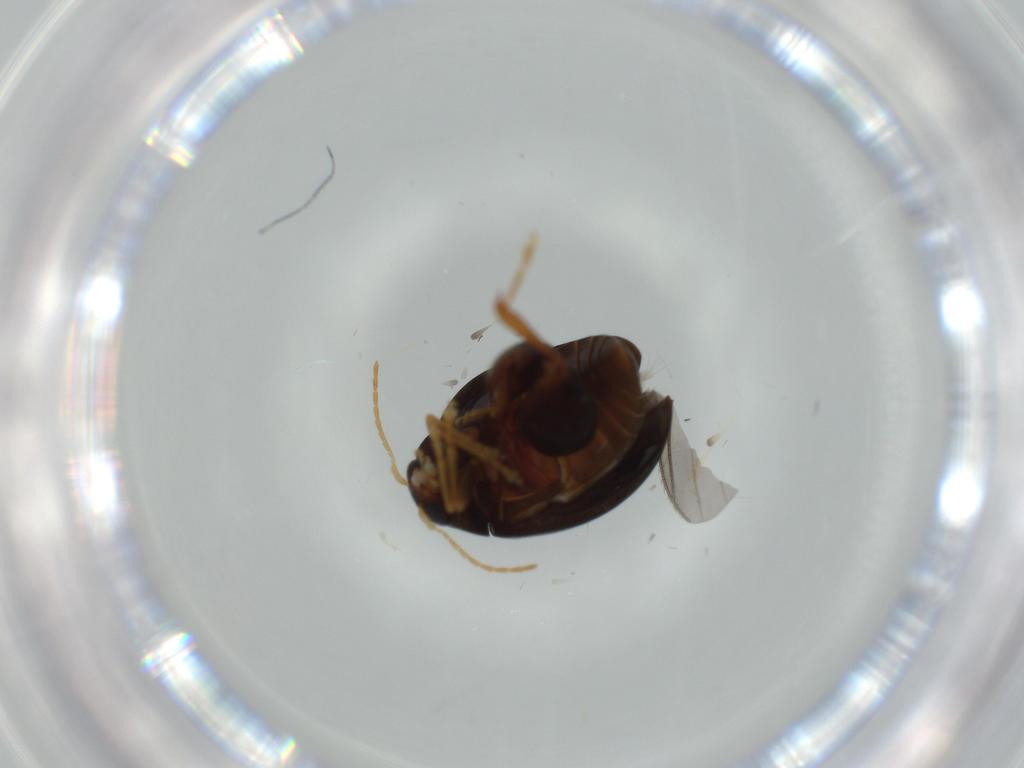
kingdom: Animalia
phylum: Arthropoda
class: Insecta
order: Coleoptera
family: Chrysomelidae
